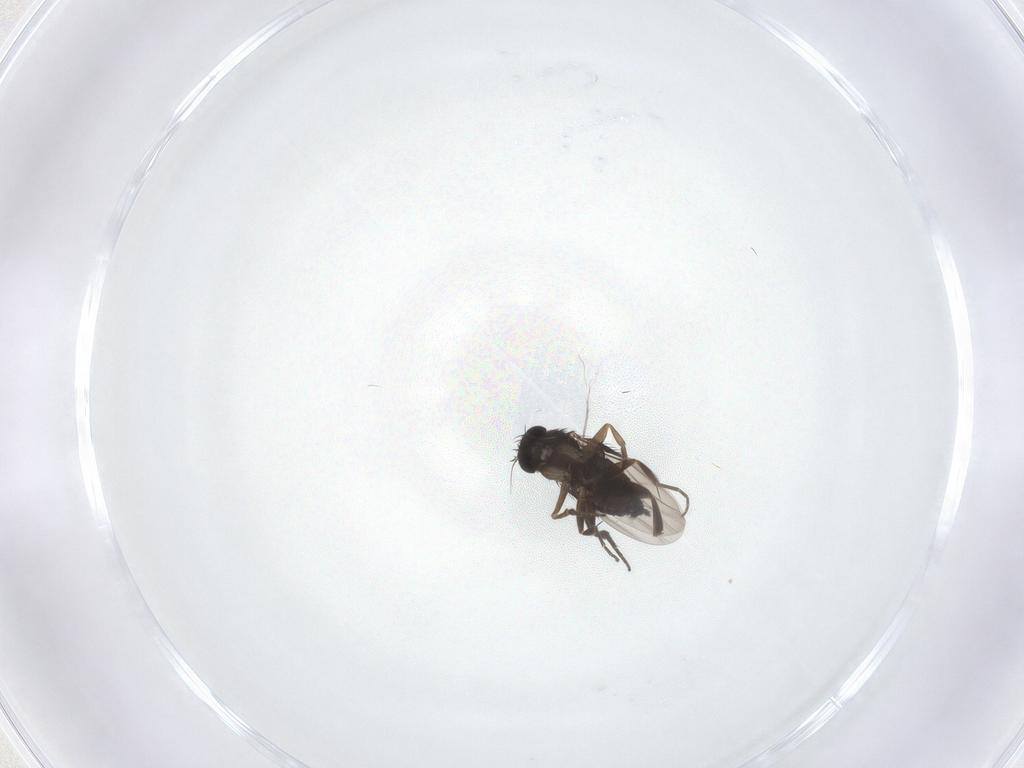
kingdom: Animalia
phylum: Arthropoda
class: Insecta
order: Diptera
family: Phoridae
